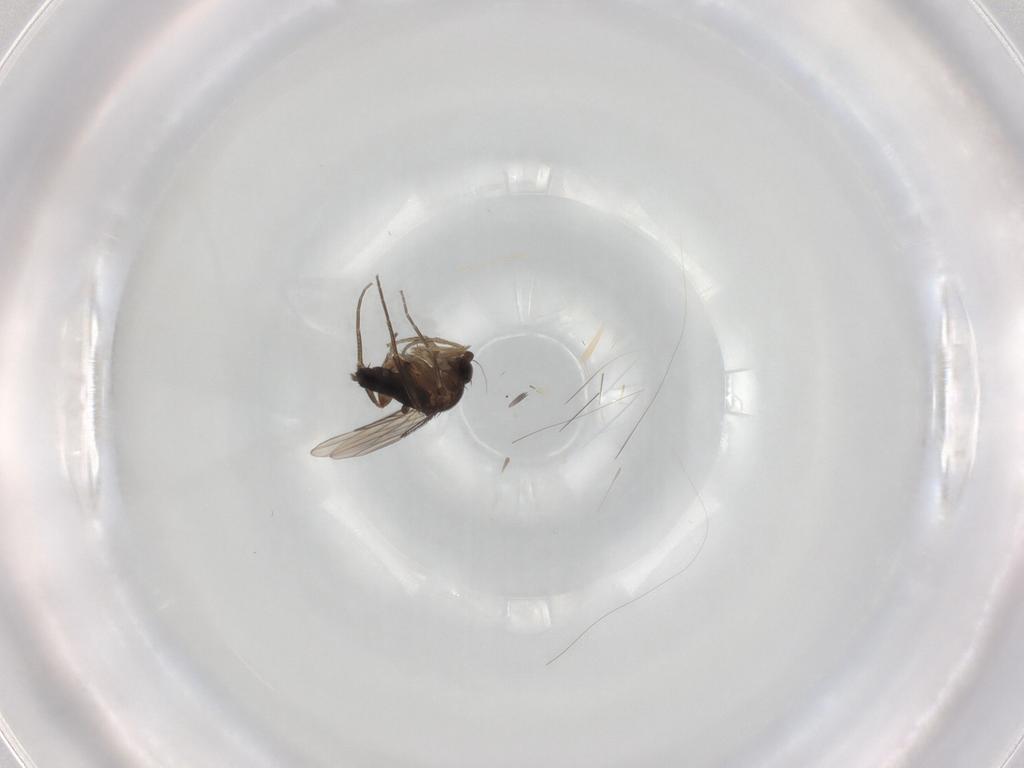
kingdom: Animalia
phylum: Arthropoda
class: Insecta
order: Diptera
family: Phoridae
